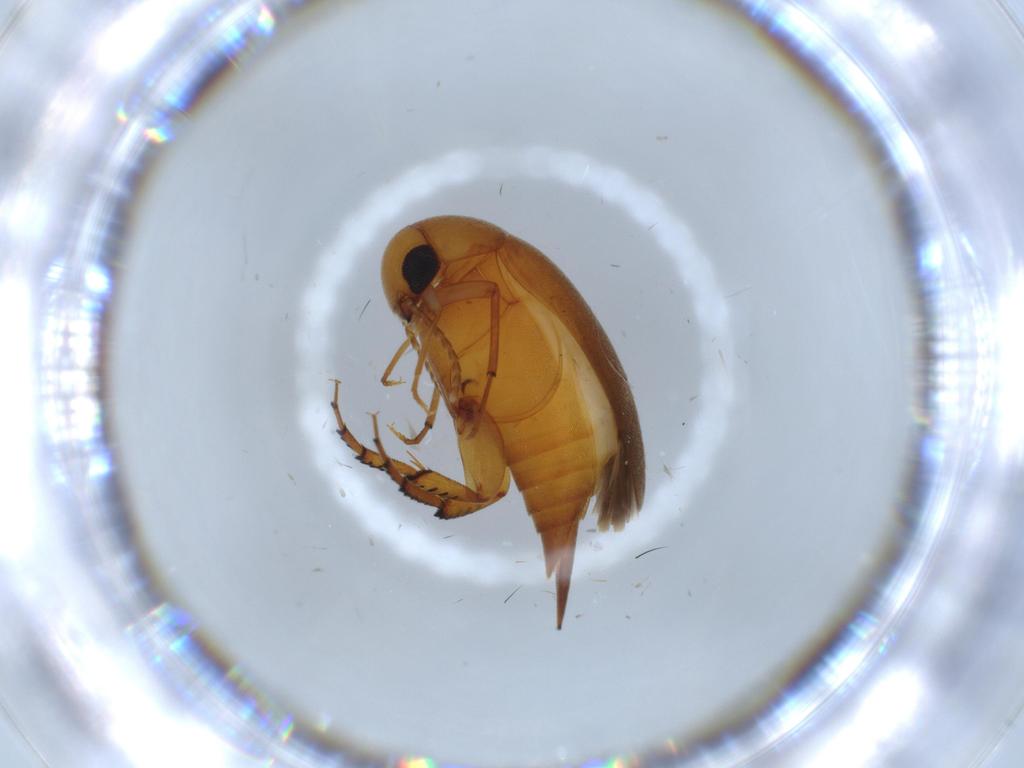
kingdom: Animalia
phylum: Arthropoda
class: Insecta
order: Coleoptera
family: Mordellidae
